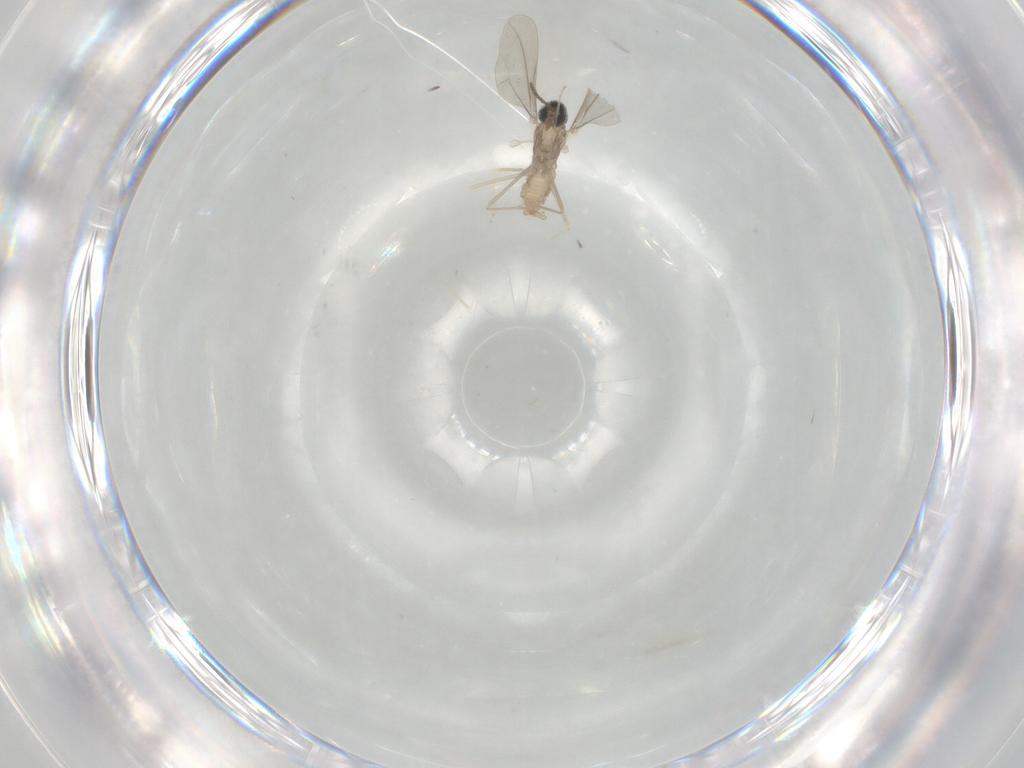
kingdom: Animalia
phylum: Arthropoda
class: Insecta
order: Diptera
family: Cecidomyiidae
